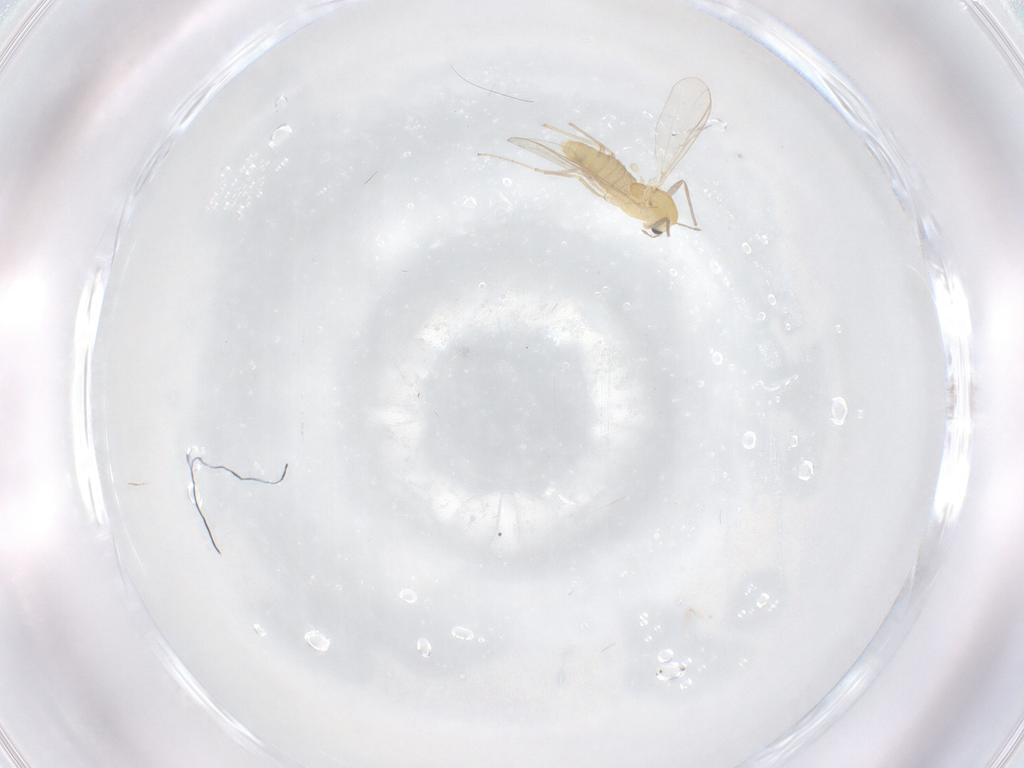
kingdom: Animalia
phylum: Arthropoda
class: Insecta
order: Diptera
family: Chironomidae
